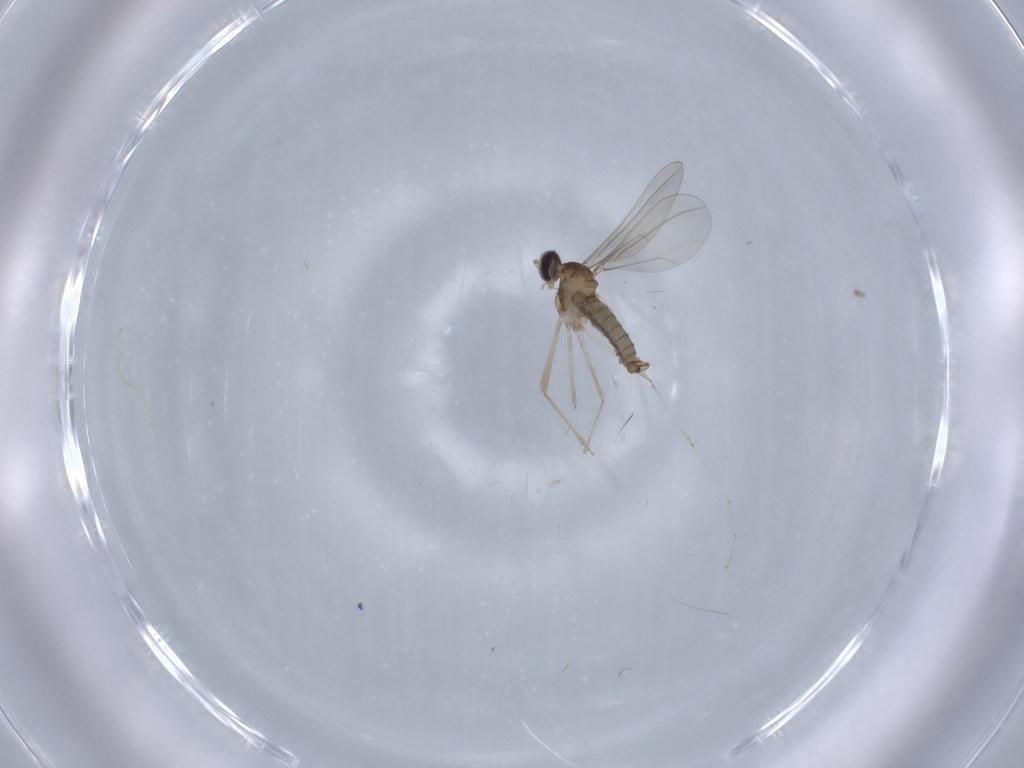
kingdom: Animalia
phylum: Arthropoda
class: Insecta
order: Diptera
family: Cecidomyiidae
